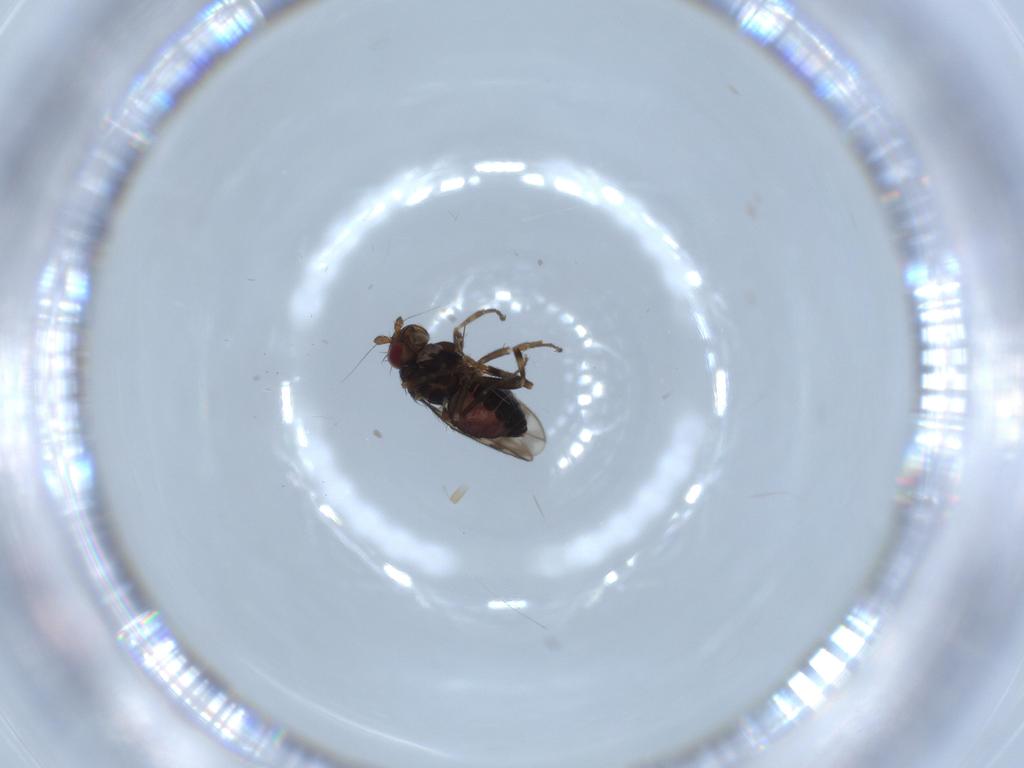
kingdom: Animalia
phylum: Arthropoda
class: Insecta
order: Diptera
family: Sphaeroceridae
